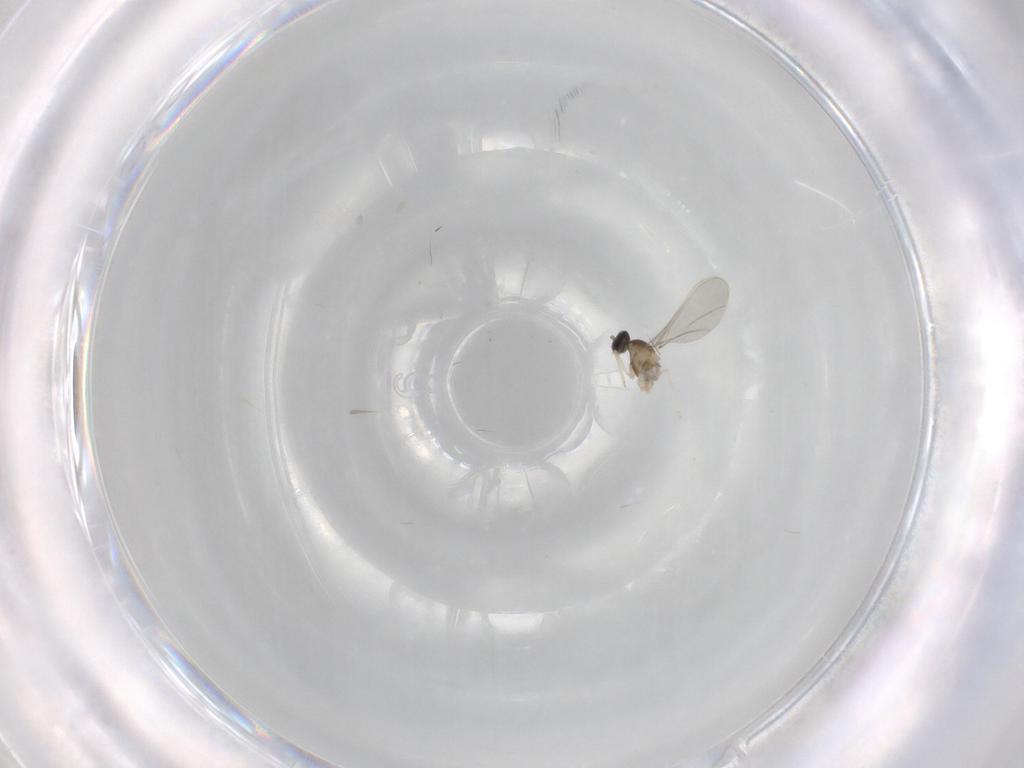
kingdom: Animalia
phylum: Arthropoda
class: Insecta
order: Diptera
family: Cecidomyiidae
